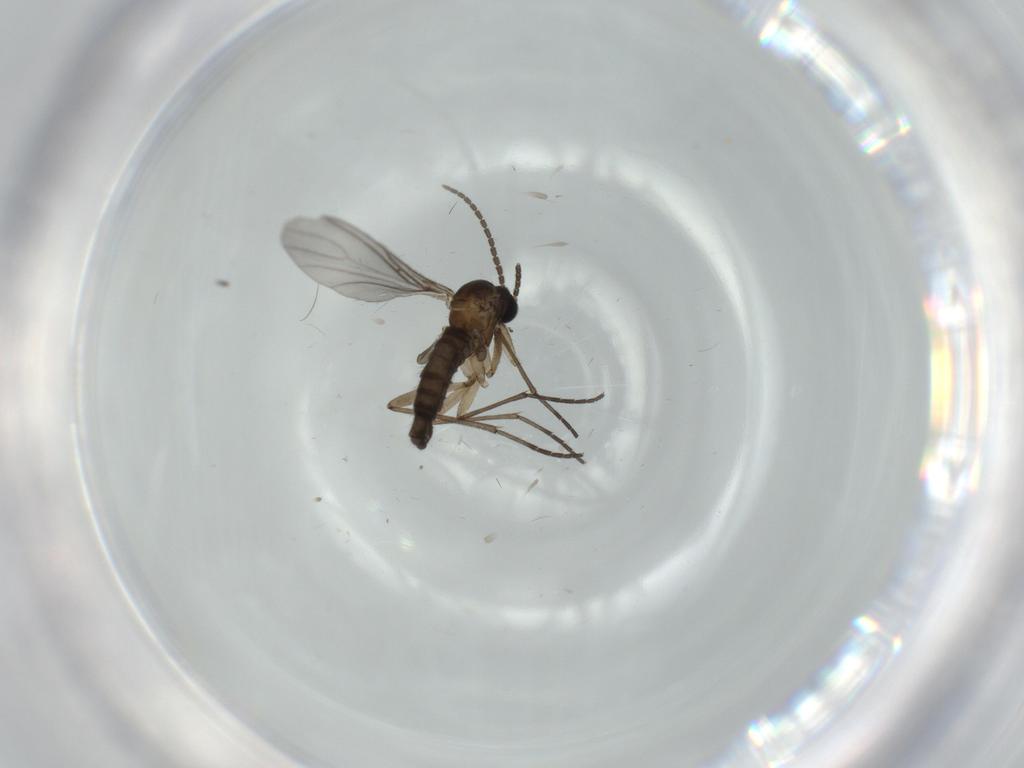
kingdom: Animalia
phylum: Arthropoda
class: Insecta
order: Diptera
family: Sciaridae
